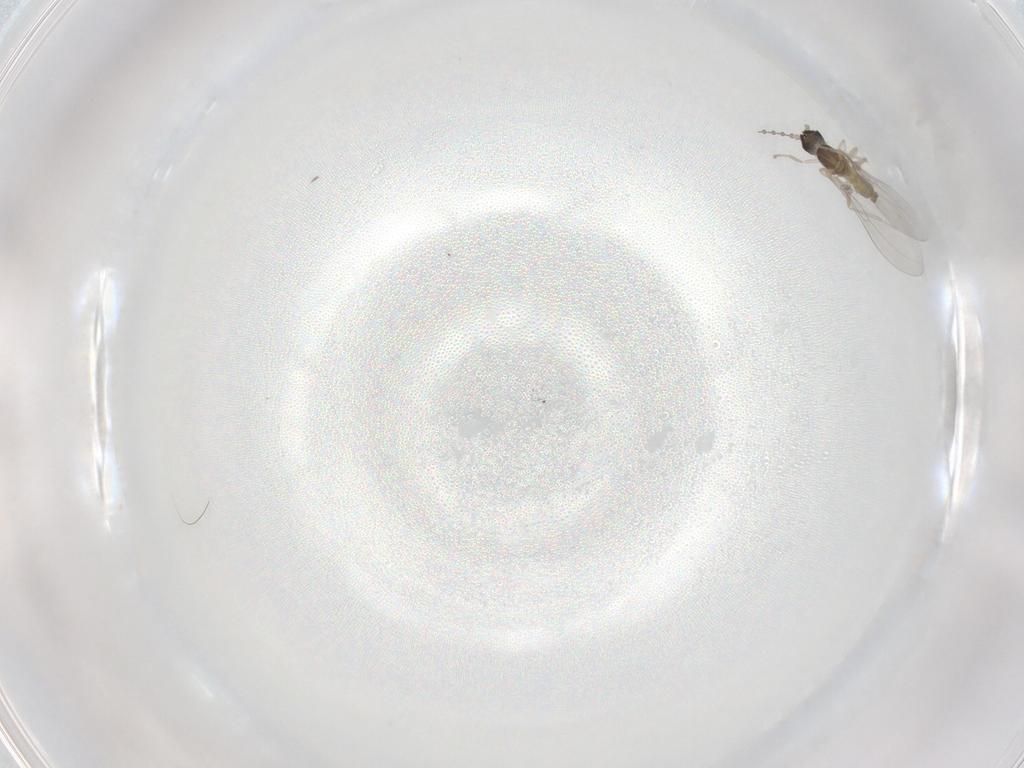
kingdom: Animalia
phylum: Arthropoda
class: Insecta
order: Diptera
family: Cecidomyiidae
